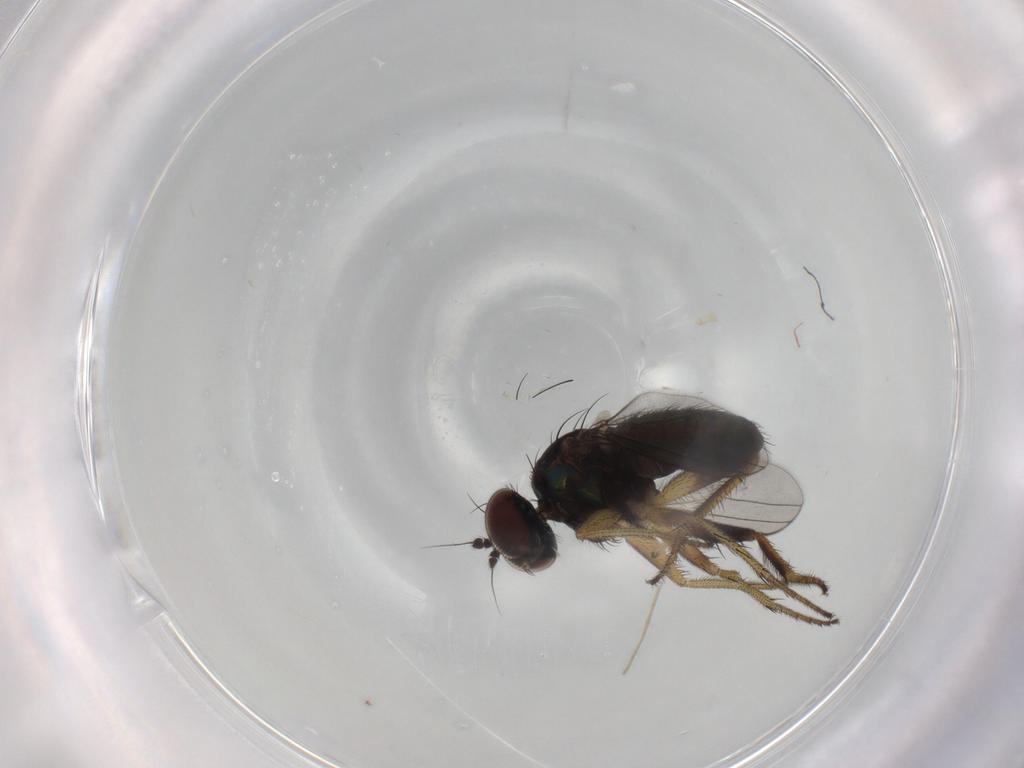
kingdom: Animalia
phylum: Arthropoda
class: Insecta
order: Diptera
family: Dolichopodidae
